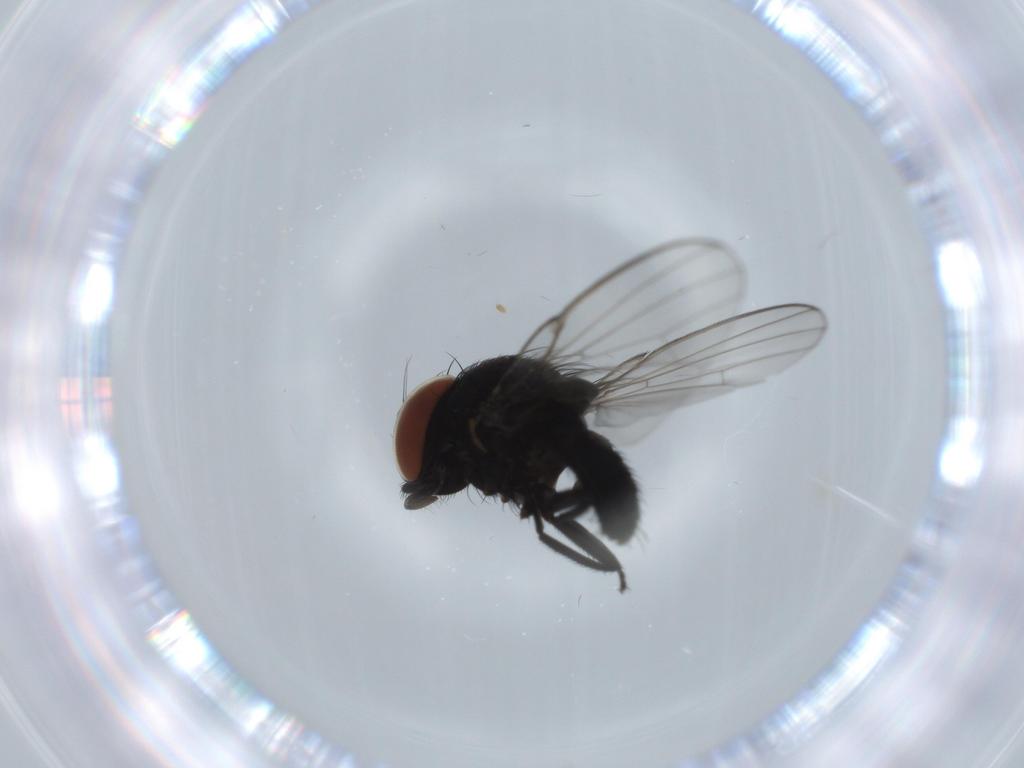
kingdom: Animalia
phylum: Arthropoda
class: Insecta
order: Diptera
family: Milichiidae
